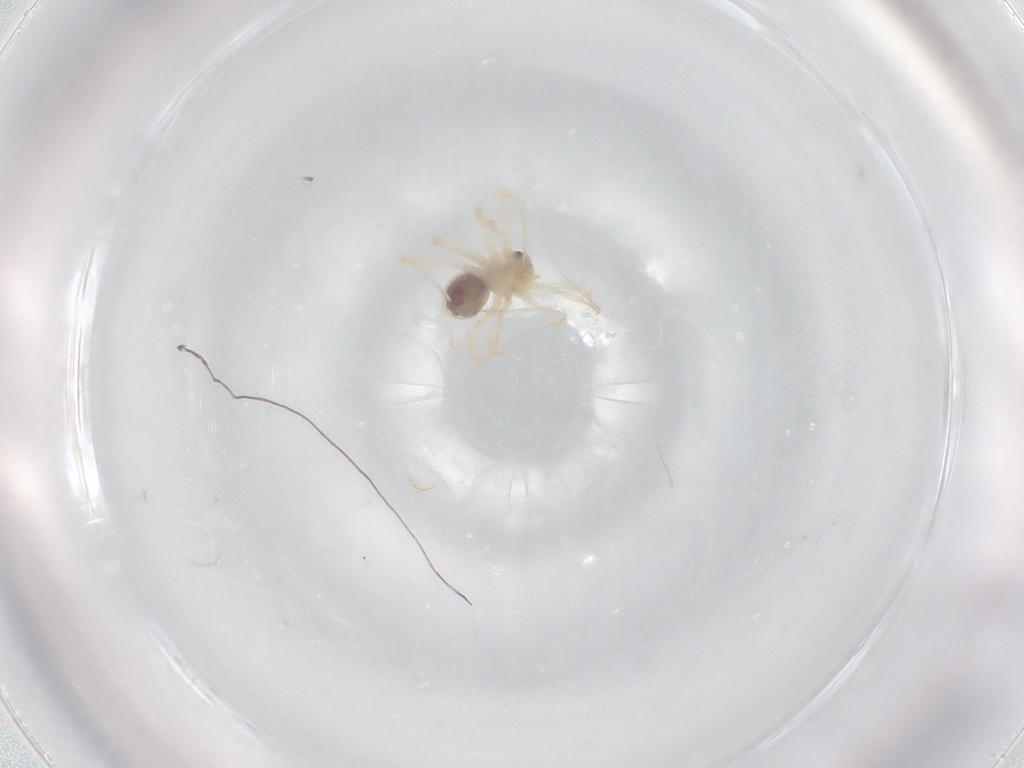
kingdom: Animalia
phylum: Arthropoda
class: Arachnida
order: Araneae
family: Pholcidae
